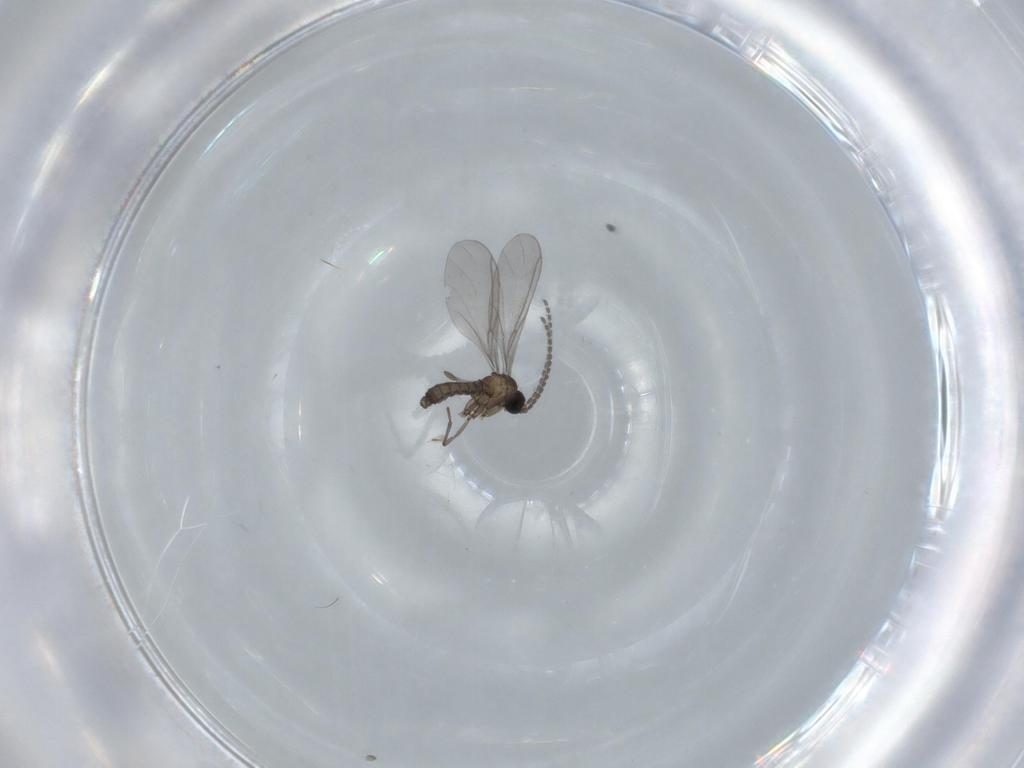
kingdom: Animalia
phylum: Arthropoda
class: Insecta
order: Diptera
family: Sciaridae
